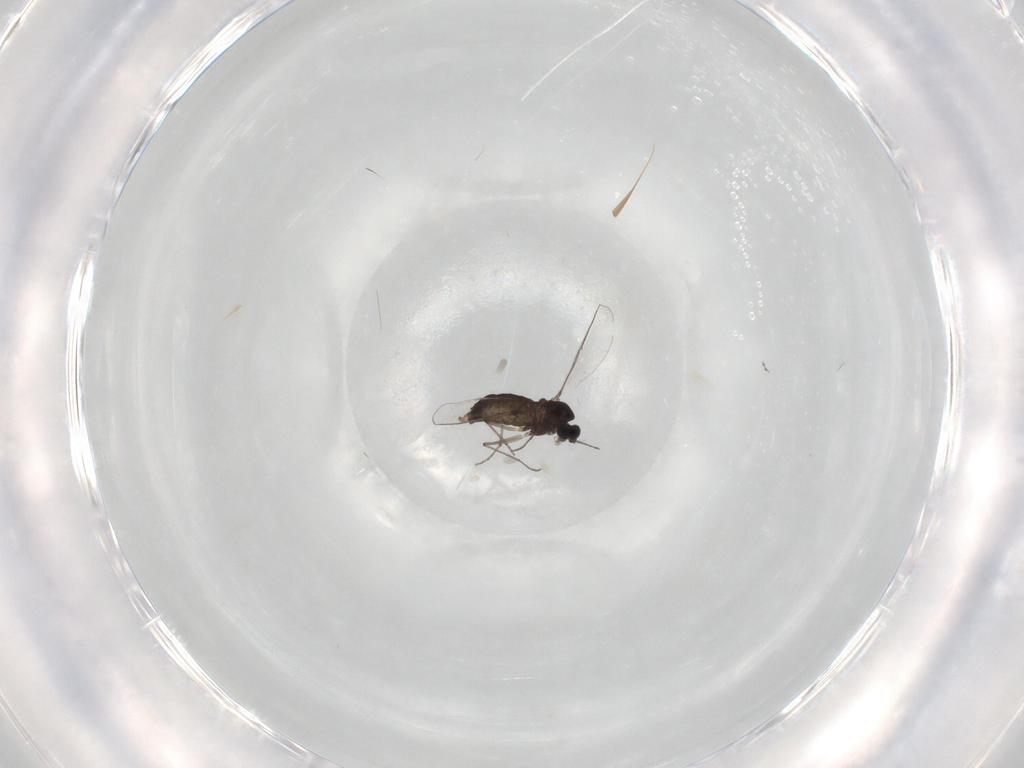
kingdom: Animalia
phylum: Arthropoda
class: Insecta
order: Diptera
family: Chironomidae
